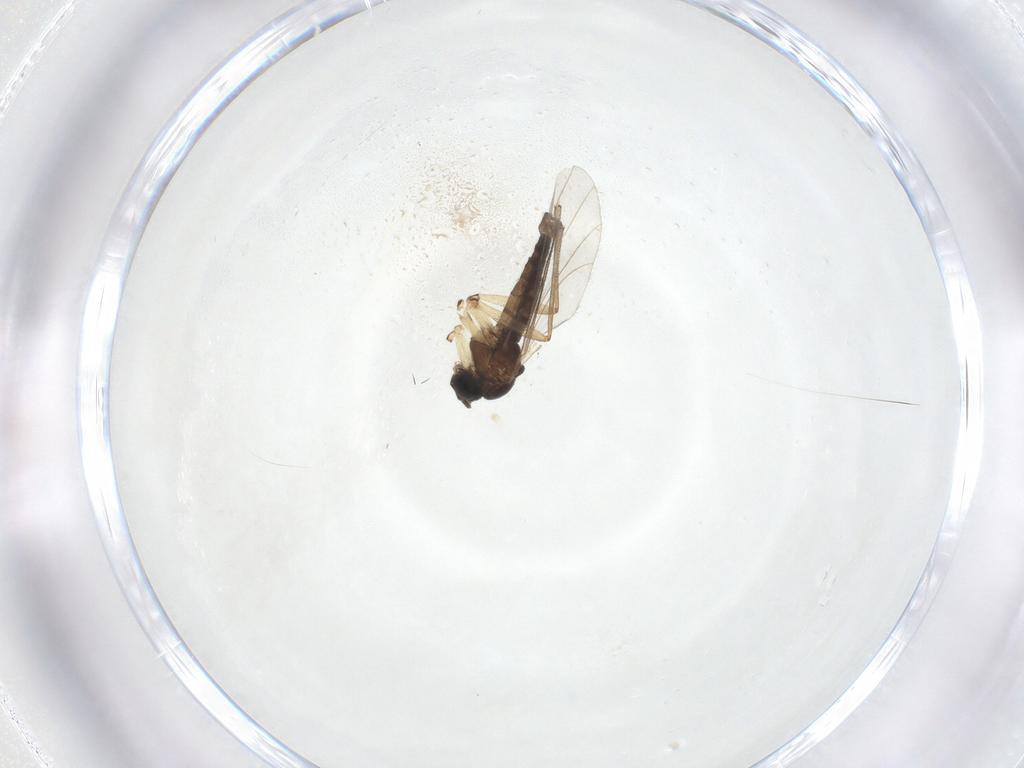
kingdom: Animalia
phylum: Arthropoda
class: Insecta
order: Diptera
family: Sciaridae
